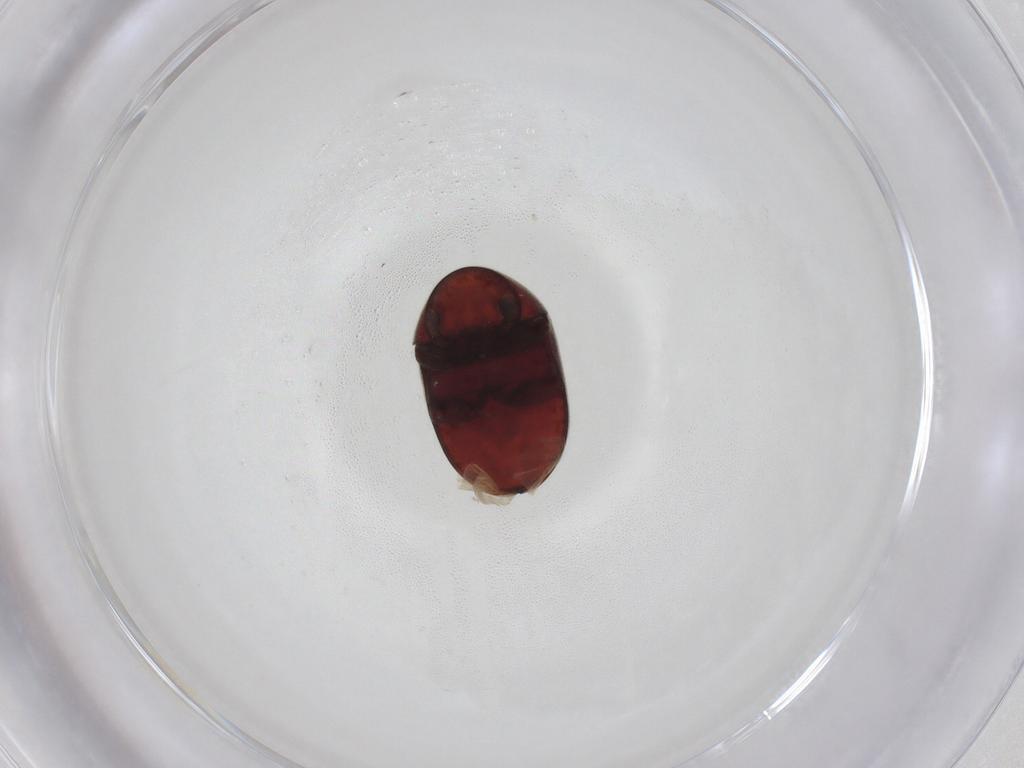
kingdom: Animalia
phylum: Arthropoda
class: Insecta
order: Coleoptera
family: Ptinidae
